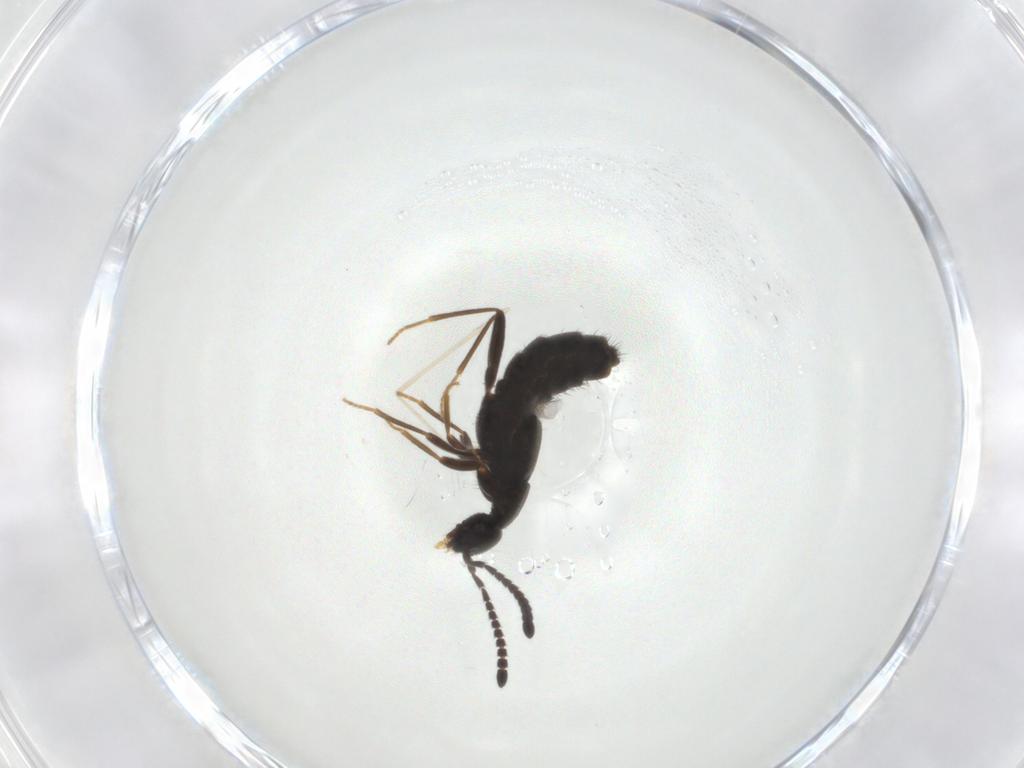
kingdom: Animalia
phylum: Arthropoda
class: Insecta
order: Coleoptera
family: Staphylinidae
